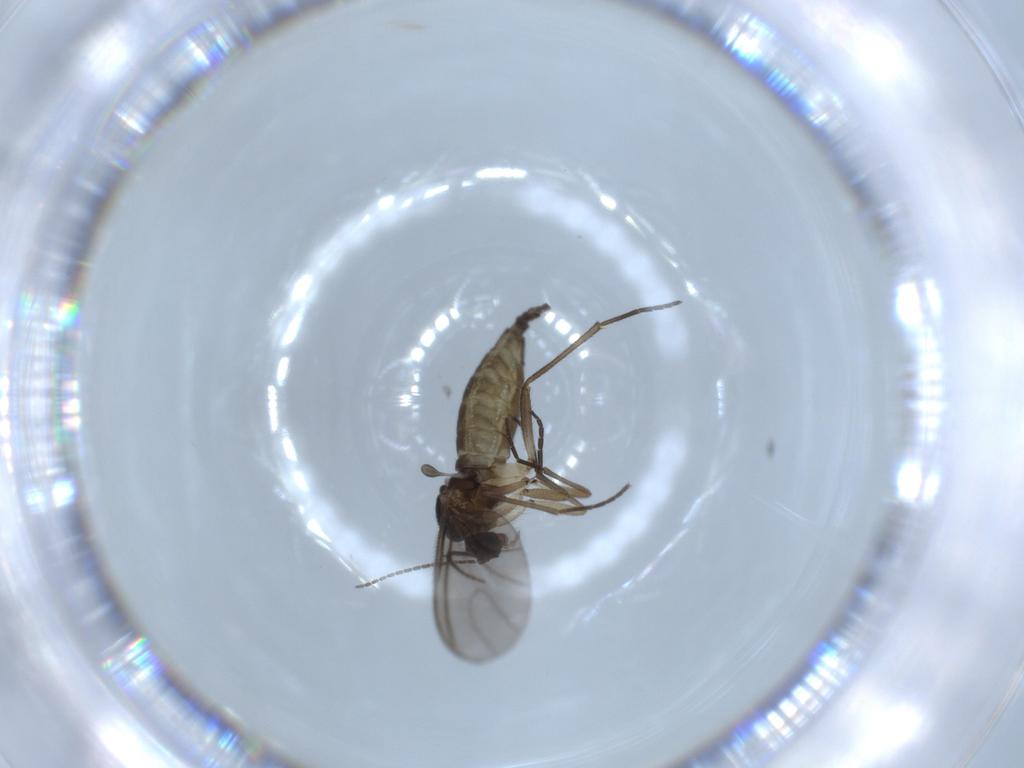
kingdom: Animalia
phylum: Arthropoda
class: Insecta
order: Diptera
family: Sciaridae
